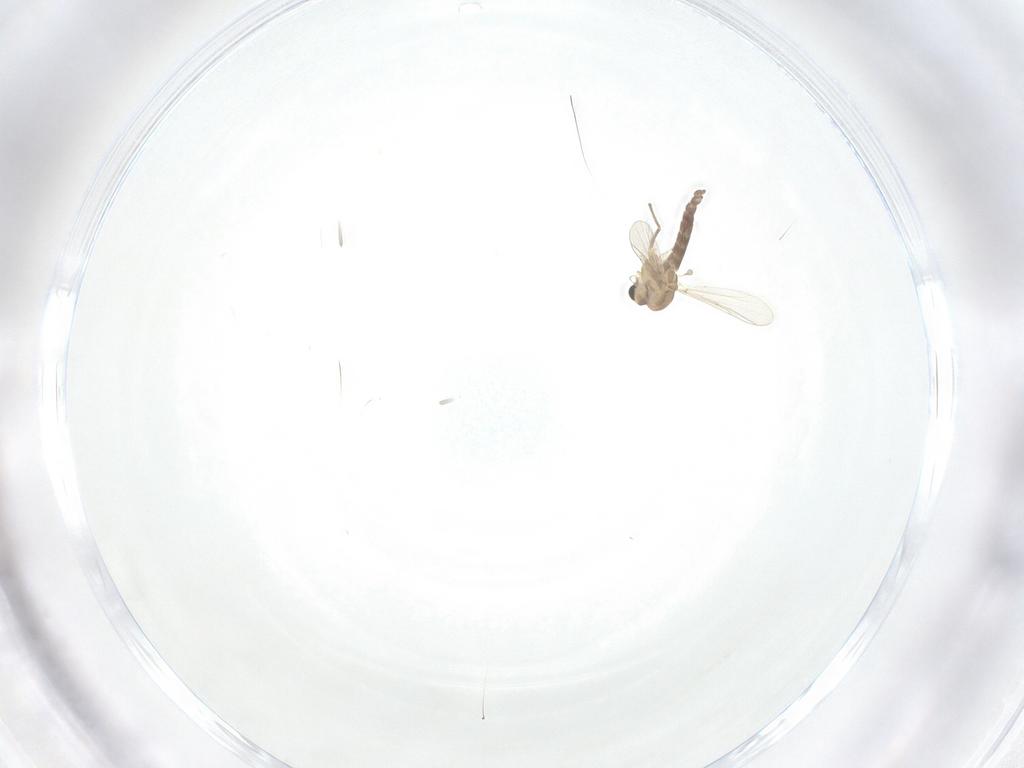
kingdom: Animalia
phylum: Arthropoda
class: Insecta
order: Diptera
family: Chironomidae
